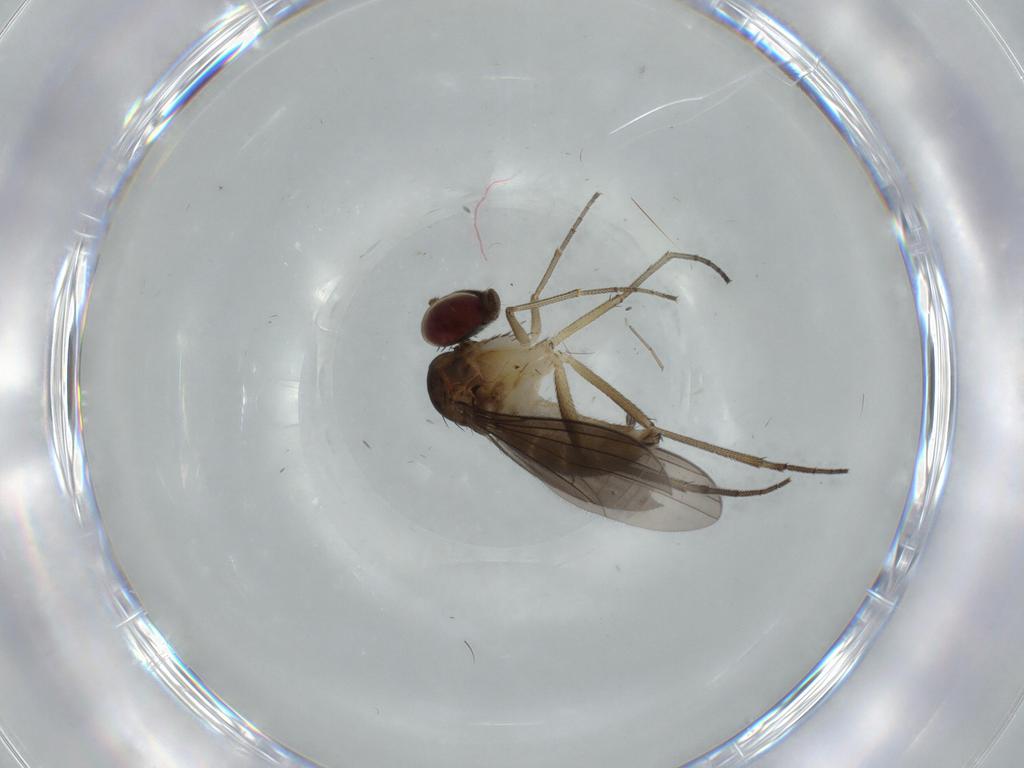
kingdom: Animalia
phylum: Arthropoda
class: Insecta
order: Diptera
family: Dolichopodidae
